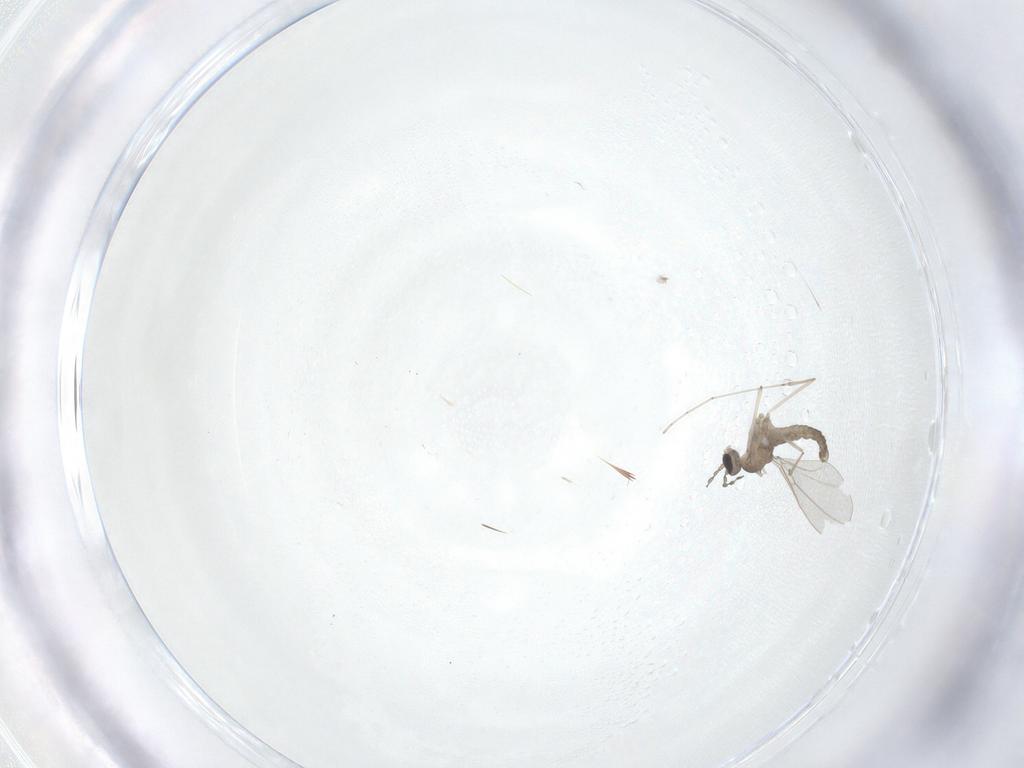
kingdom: Animalia
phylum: Arthropoda
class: Insecta
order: Diptera
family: Cecidomyiidae
